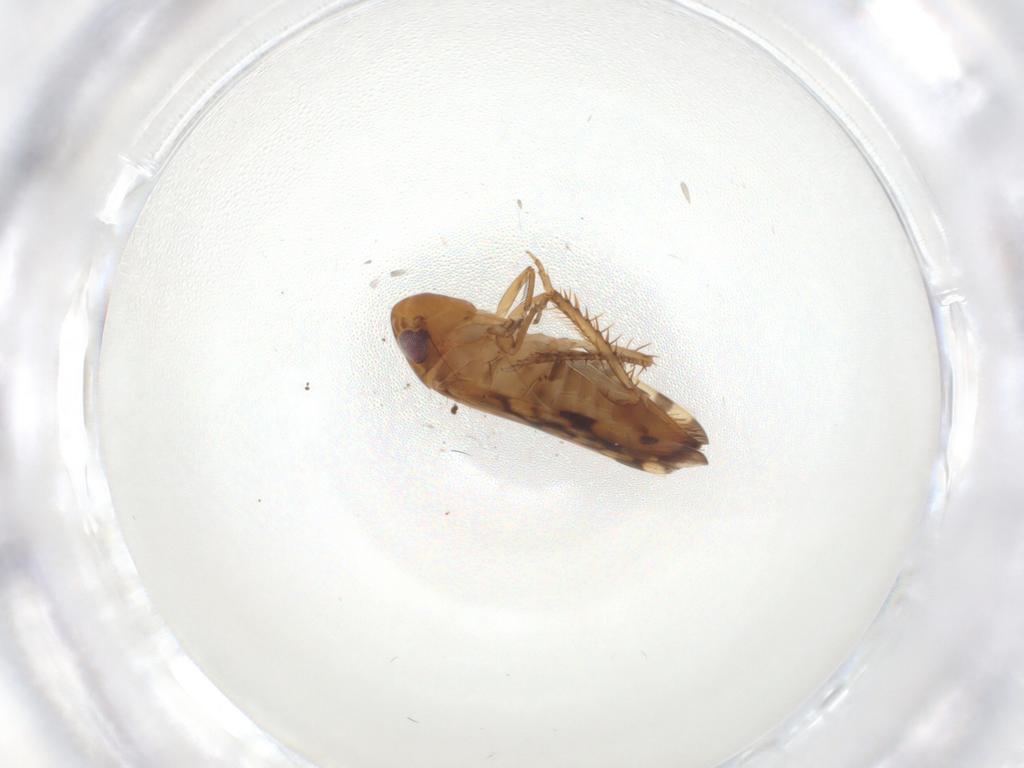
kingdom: Animalia
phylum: Arthropoda
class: Insecta
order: Hemiptera
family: Cicadellidae
